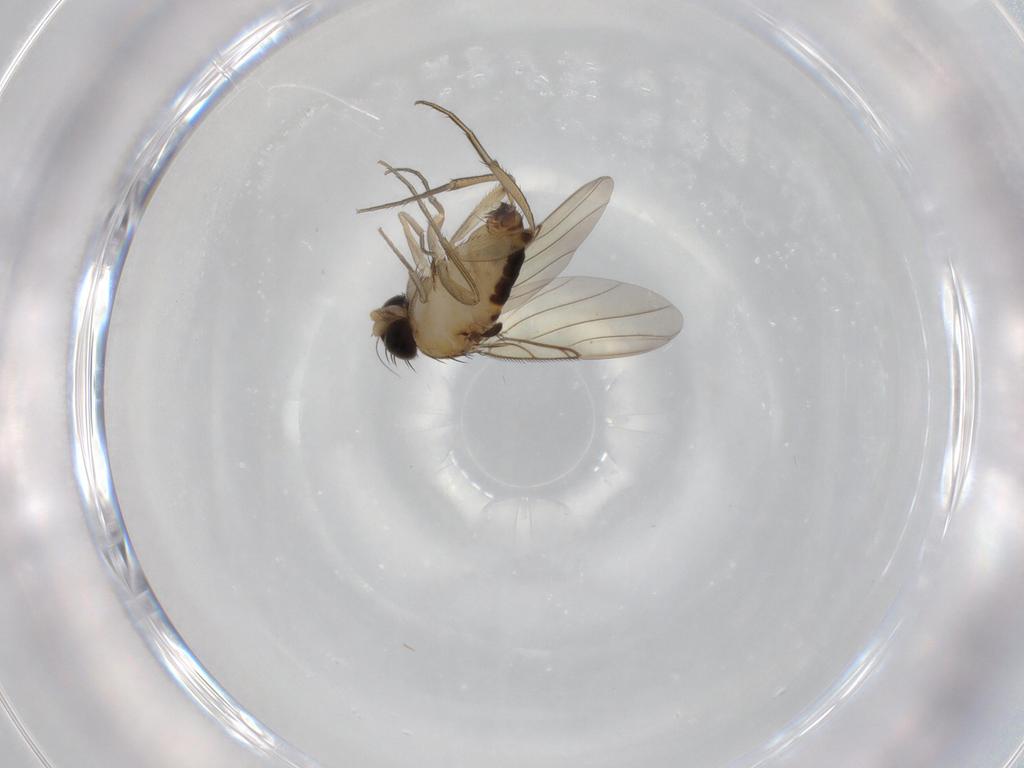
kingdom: Animalia
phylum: Arthropoda
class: Insecta
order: Diptera
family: Phoridae
